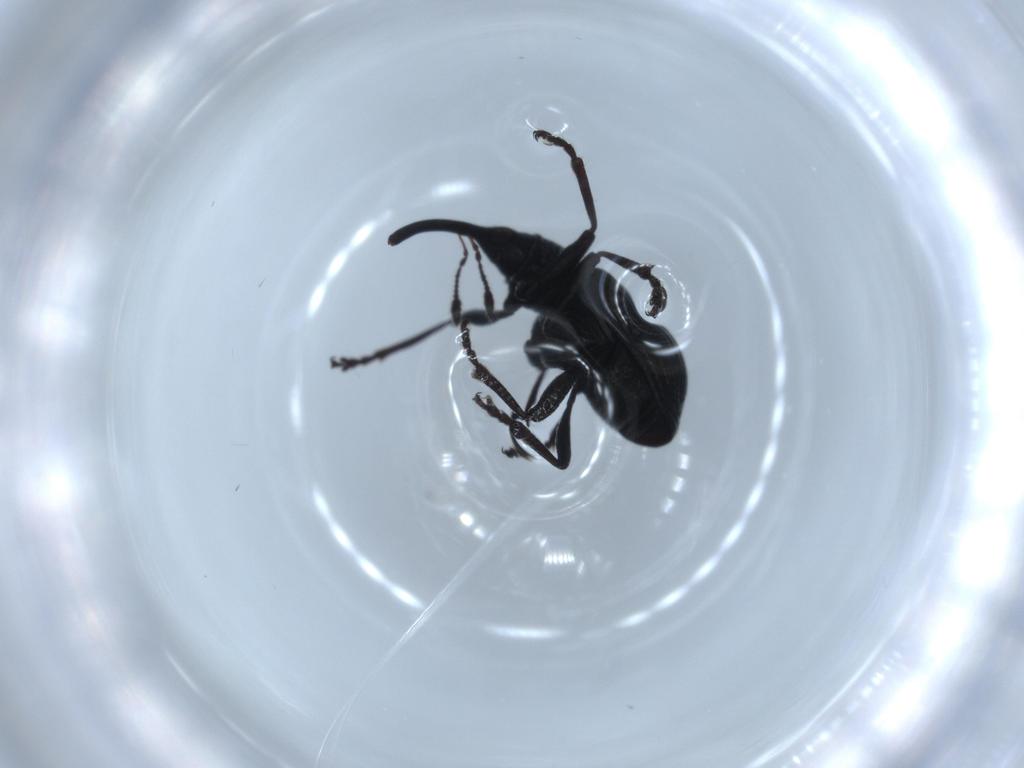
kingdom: Animalia
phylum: Arthropoda
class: Insecta
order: Coleoptera
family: Brentidae
